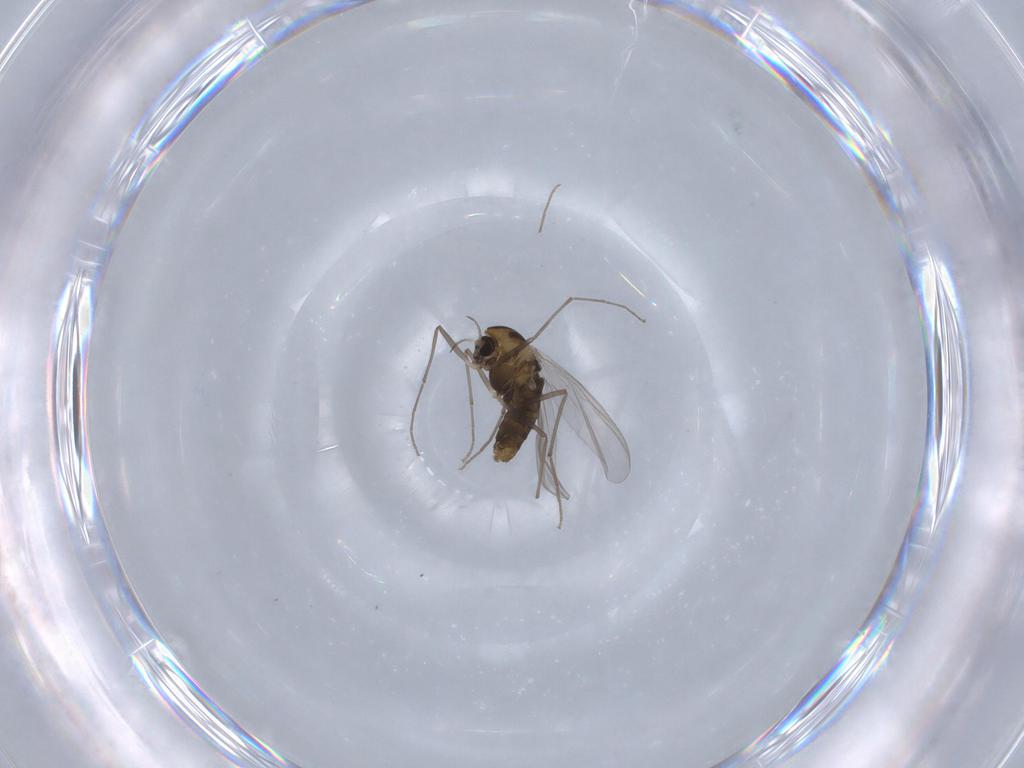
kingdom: Animalia
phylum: Arthropoda
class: Insecta
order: Diptera
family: Chironomidae
